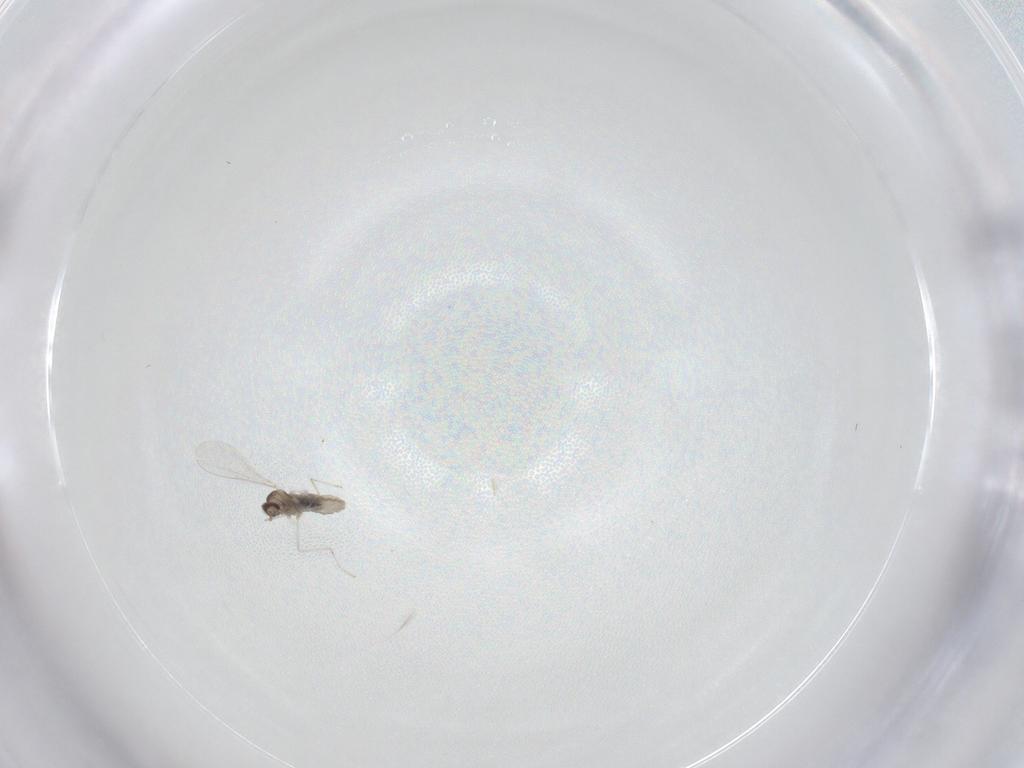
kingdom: Animalia
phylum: Arthropoda
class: Insecta
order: Diptera
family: Cecidomyiidae
